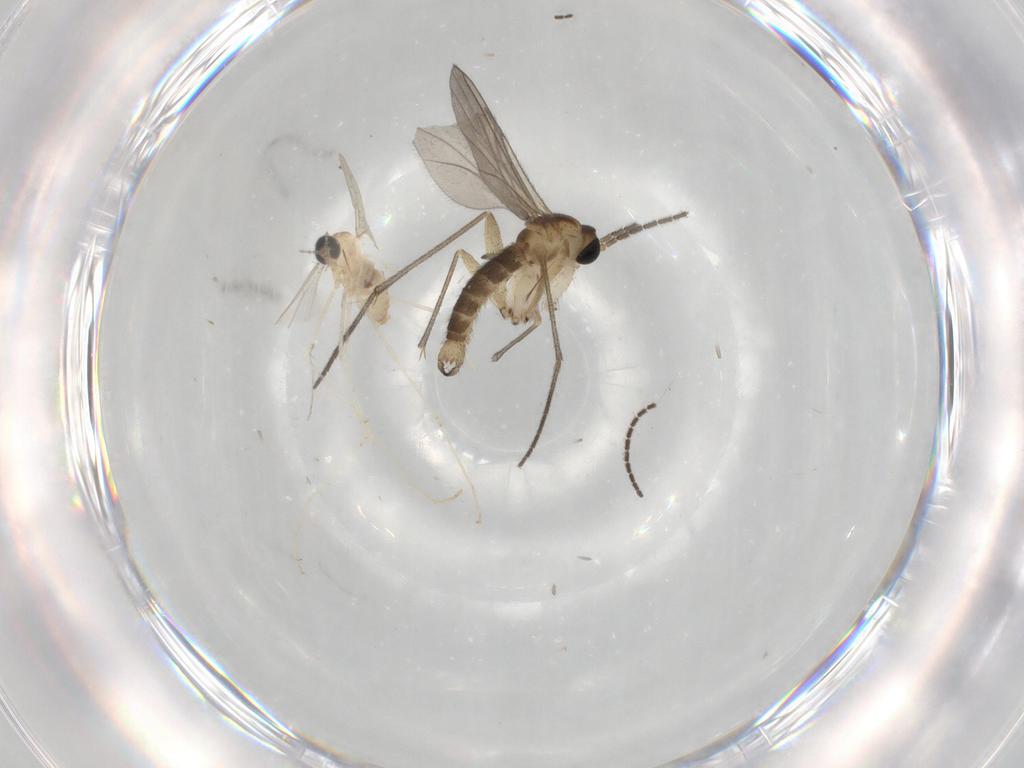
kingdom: Animalia
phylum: Arthropoda
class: Insecta
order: Diptera
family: Sciaridae
